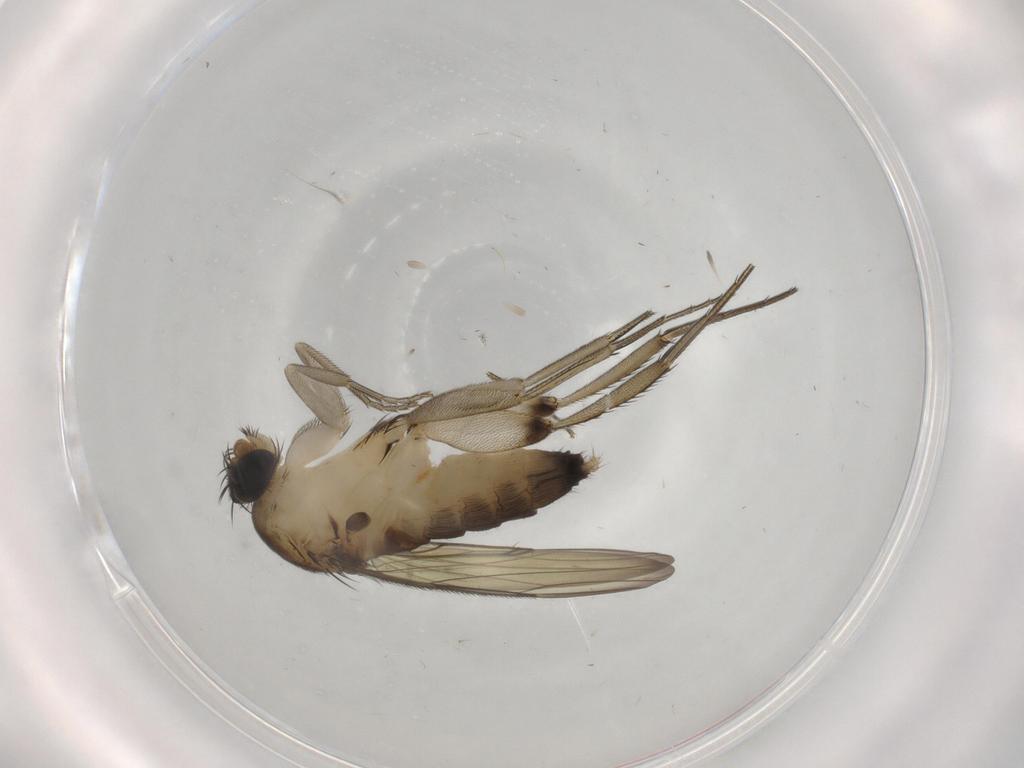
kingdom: Animalia
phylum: Arthropoda
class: Insecta
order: Diptera
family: Phoridae
